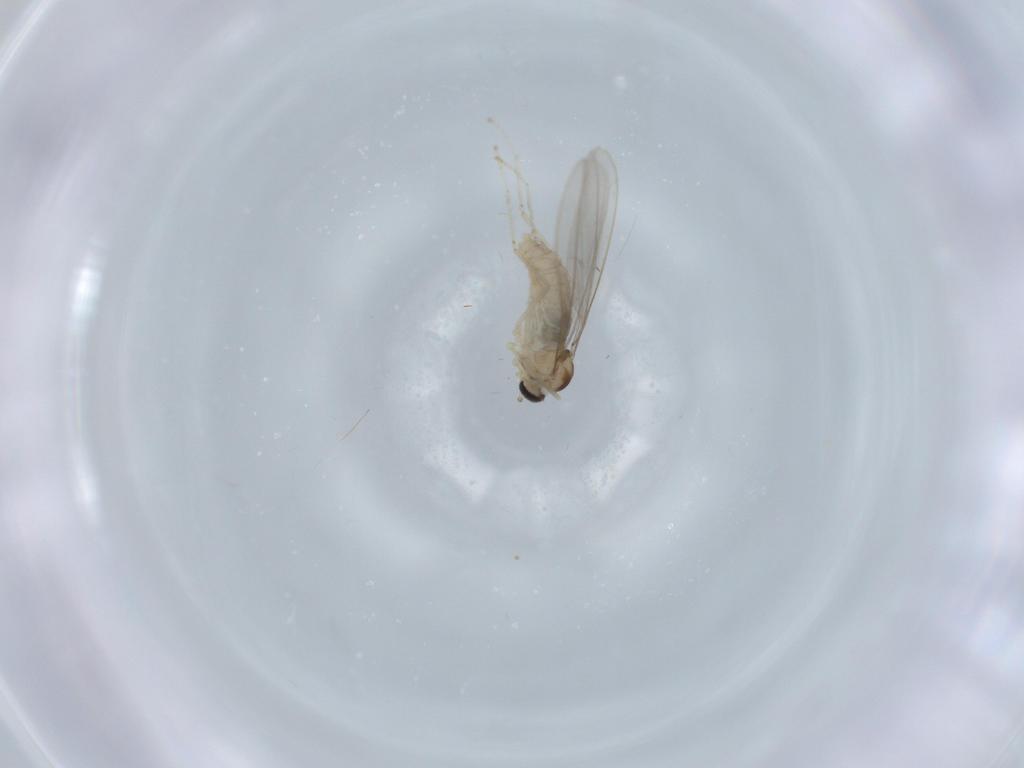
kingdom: Animalia
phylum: Arthropoda
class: Insecta
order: Diptera
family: Cecidomyiidae
